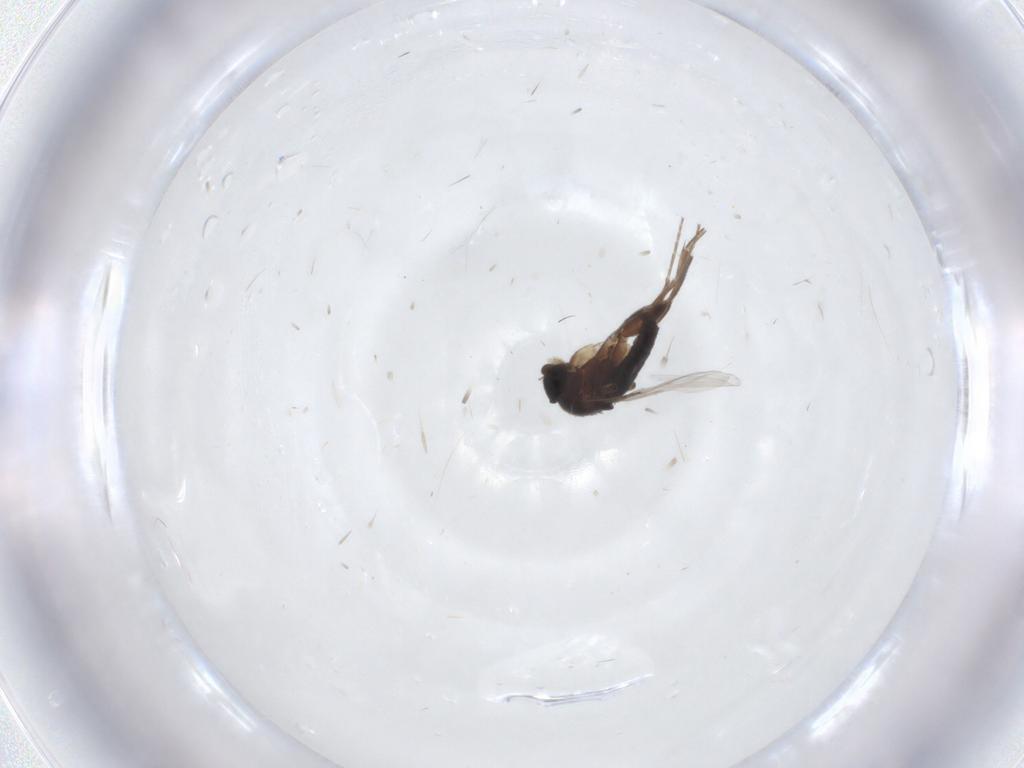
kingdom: Animalia
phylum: Arthropoda
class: Insecta
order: Diptera
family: Phoridae
